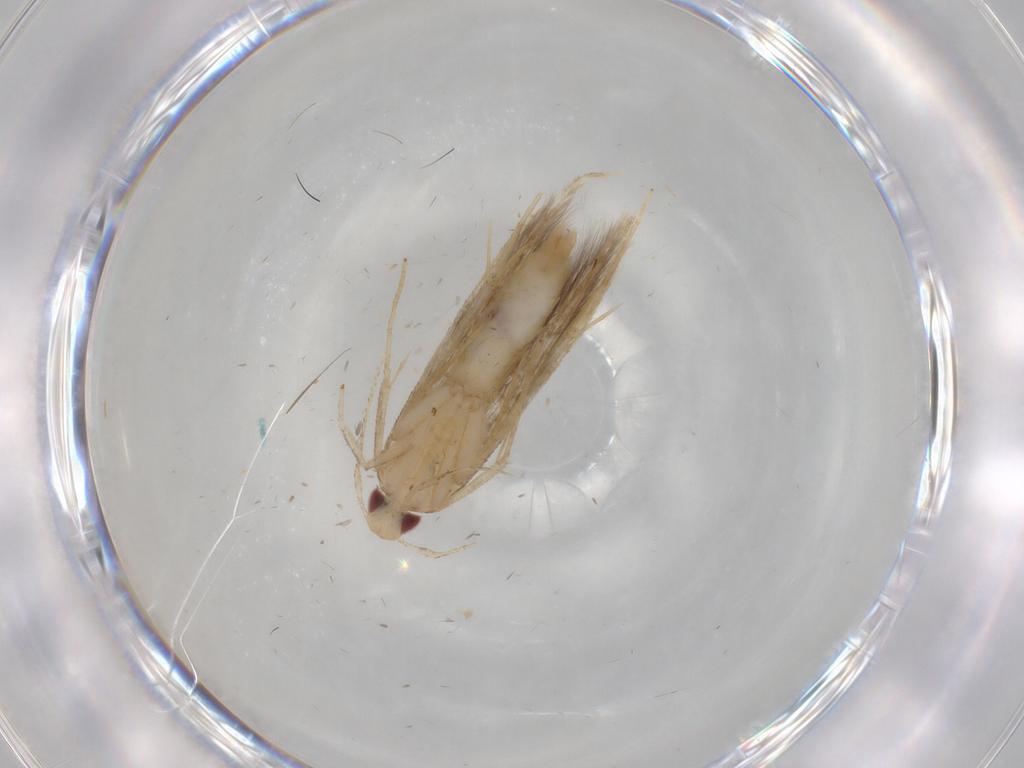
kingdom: Animalia
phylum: Arthropoda
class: Insecta
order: Lepidoptera
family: Gelechiidae
